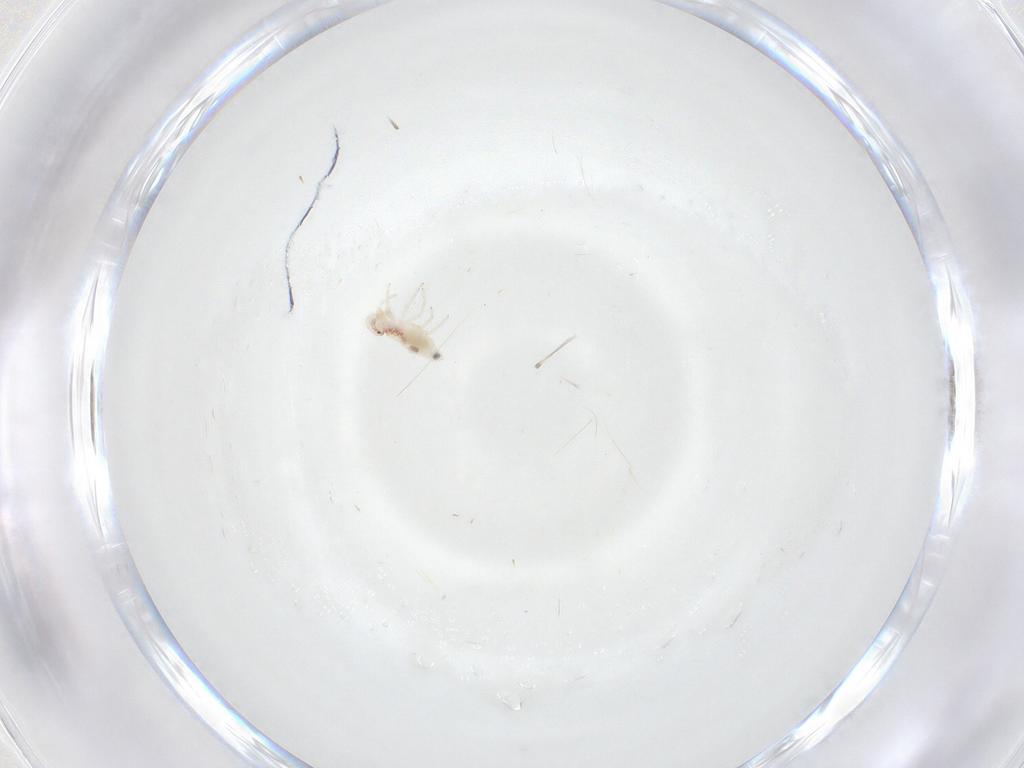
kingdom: Animalia
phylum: Arthropoda
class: Insecta
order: Psocodea
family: Caeciliusidae
